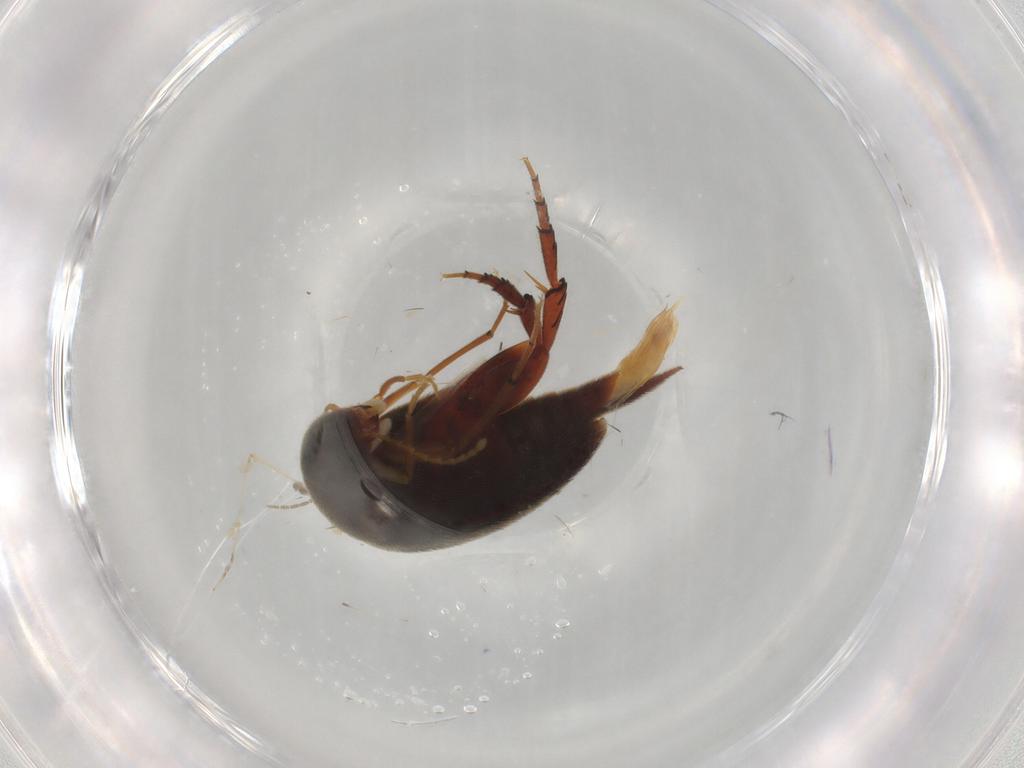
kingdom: Animalia
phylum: Arthropoda
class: Insecta
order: Coleoptera
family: Mordellidae
